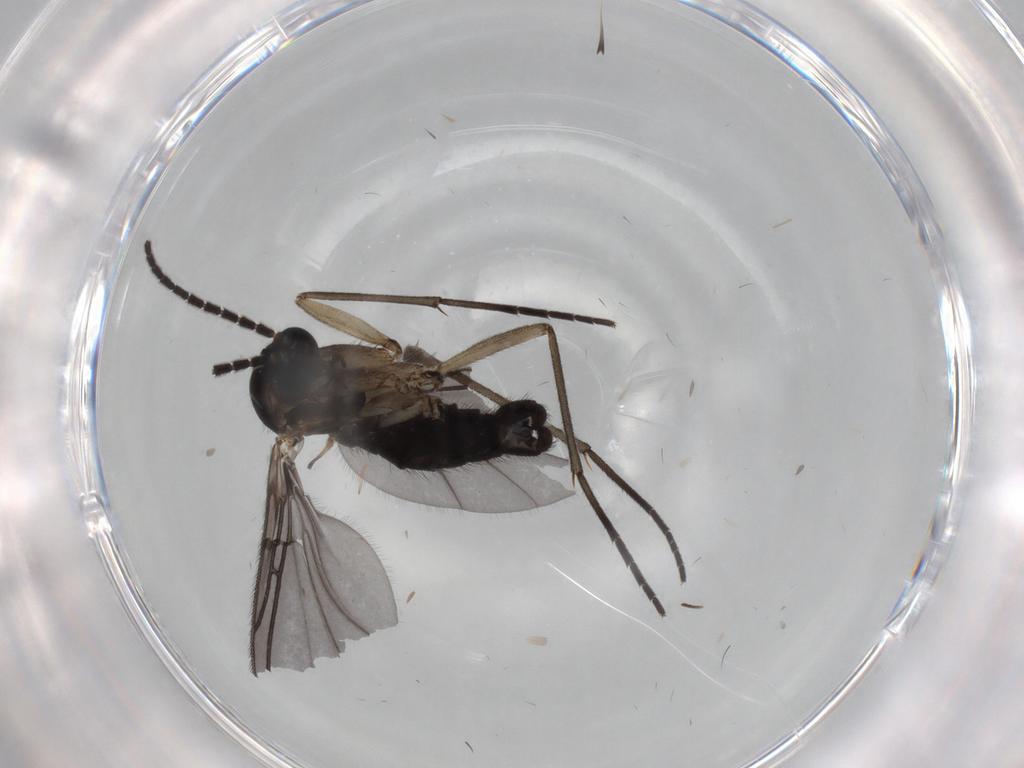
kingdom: Animalia
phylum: Arthropoda
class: Insecta
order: Diptera
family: Sciaridae
